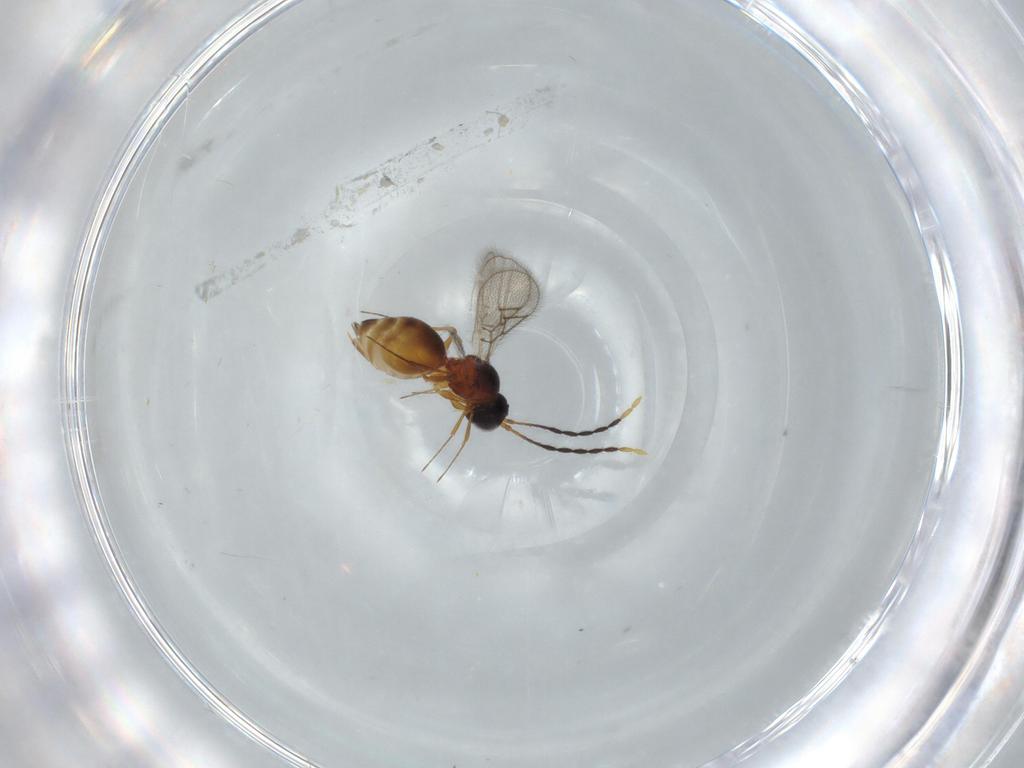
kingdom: Animalia
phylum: Arthropoda
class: Insecta
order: Hymenoptera
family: Figitidae
